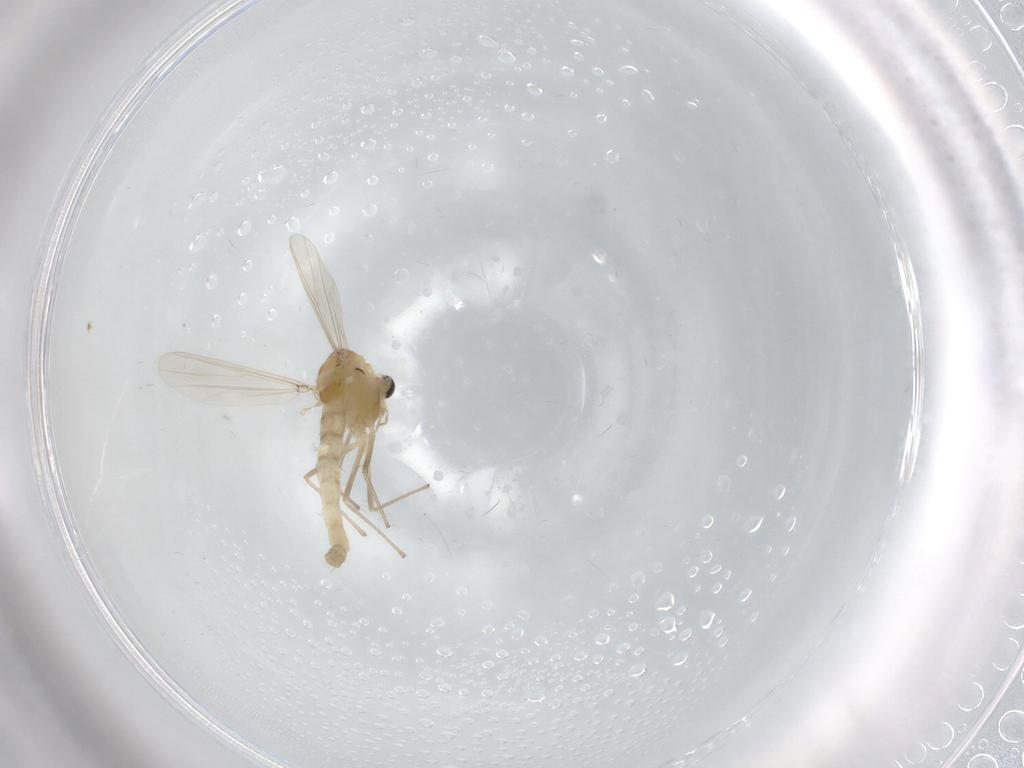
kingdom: Animalia
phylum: Arthropoda
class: Insecta
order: Diptera
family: Chironomidae
